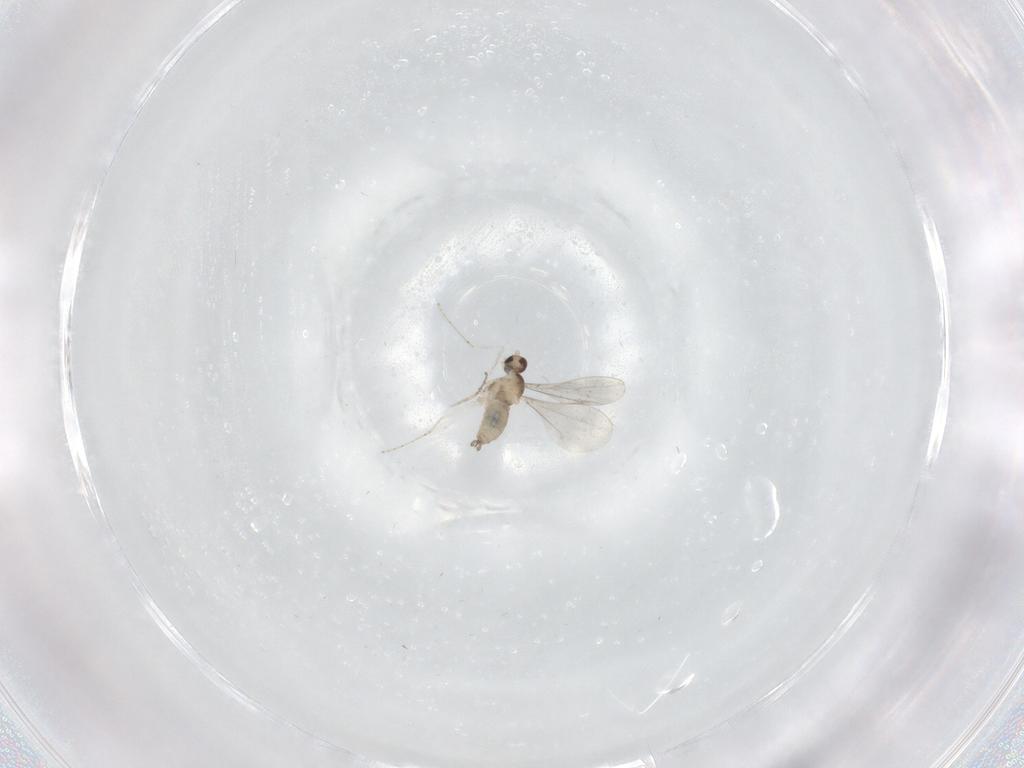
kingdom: Animalia
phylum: Arthropoda
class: Insecta
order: Diptera
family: Cecidomyiidae
